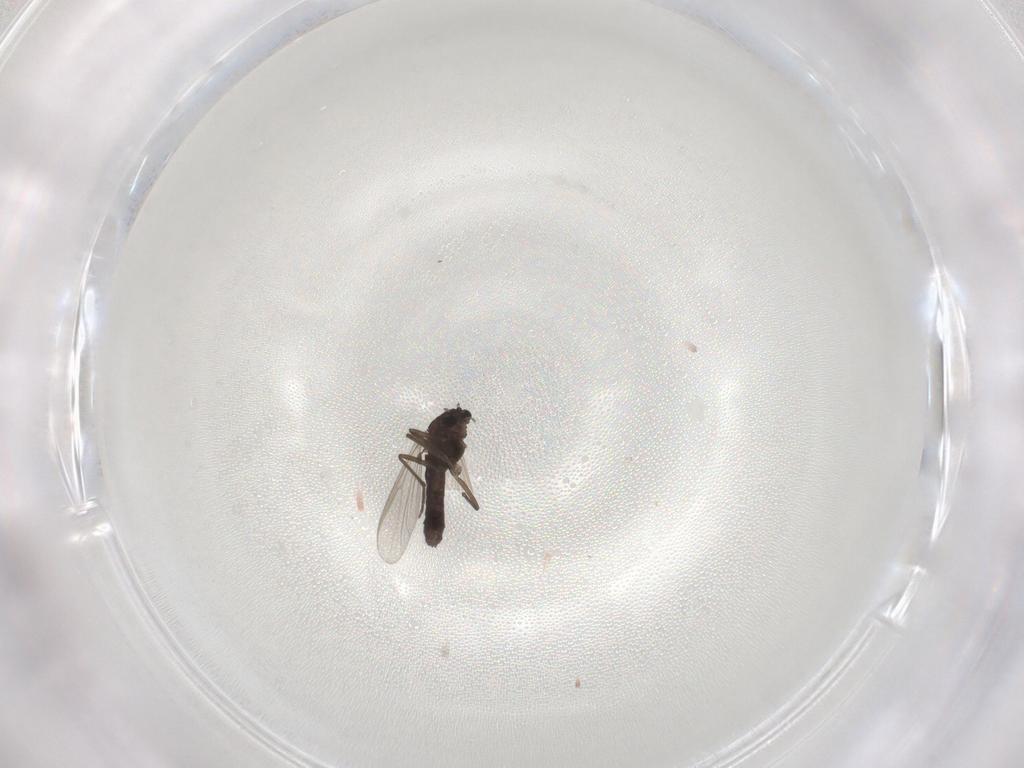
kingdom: Animalia
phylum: Arthropoda
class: Insecta
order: Diptera
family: Chironomidae
